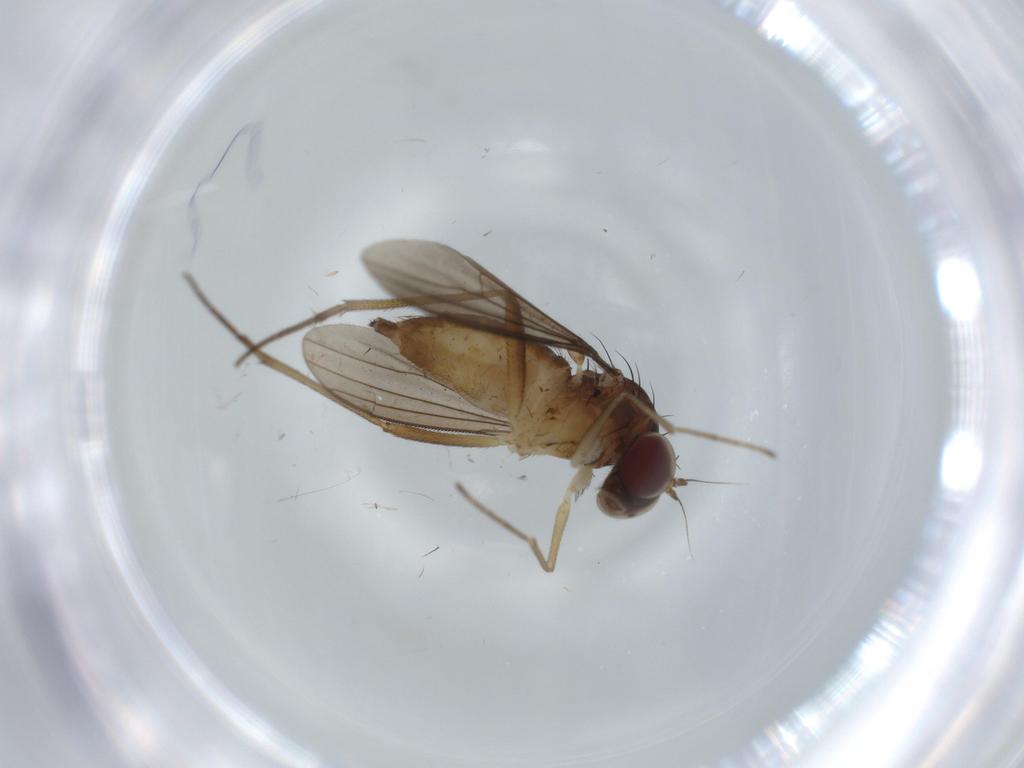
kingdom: Animalia
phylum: Arthropoda
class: Insecta
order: Diptera
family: Dolichopodidae
